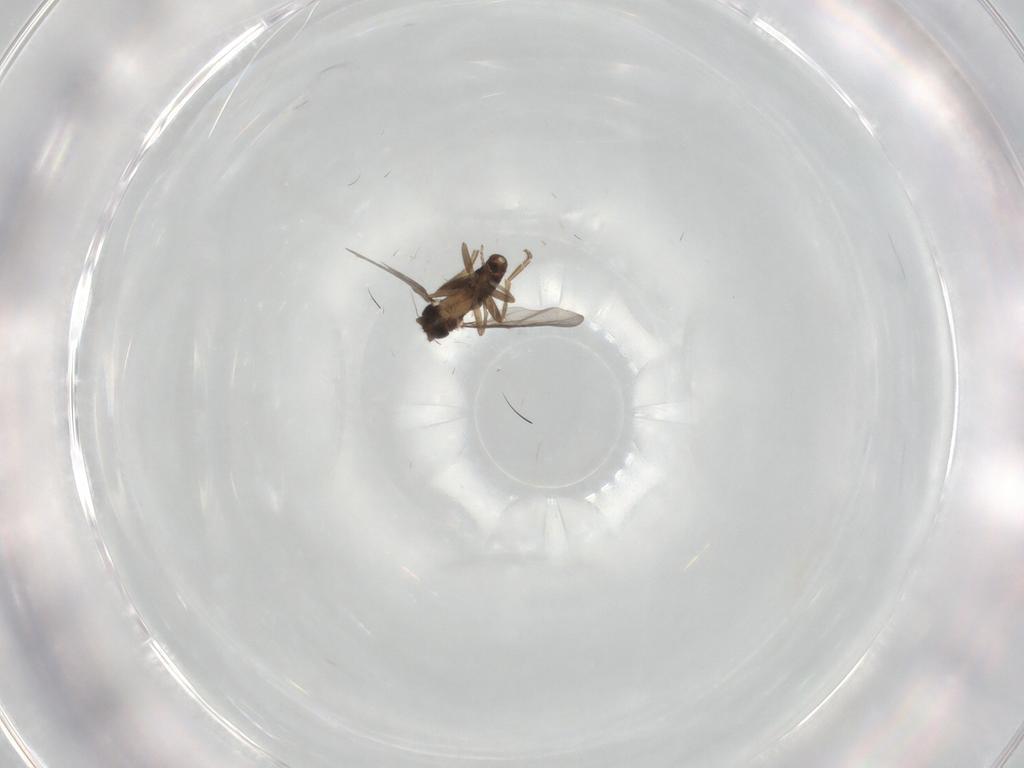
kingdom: Animalia
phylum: Arthropoda
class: Insecta
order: Diptera
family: Phoridae
